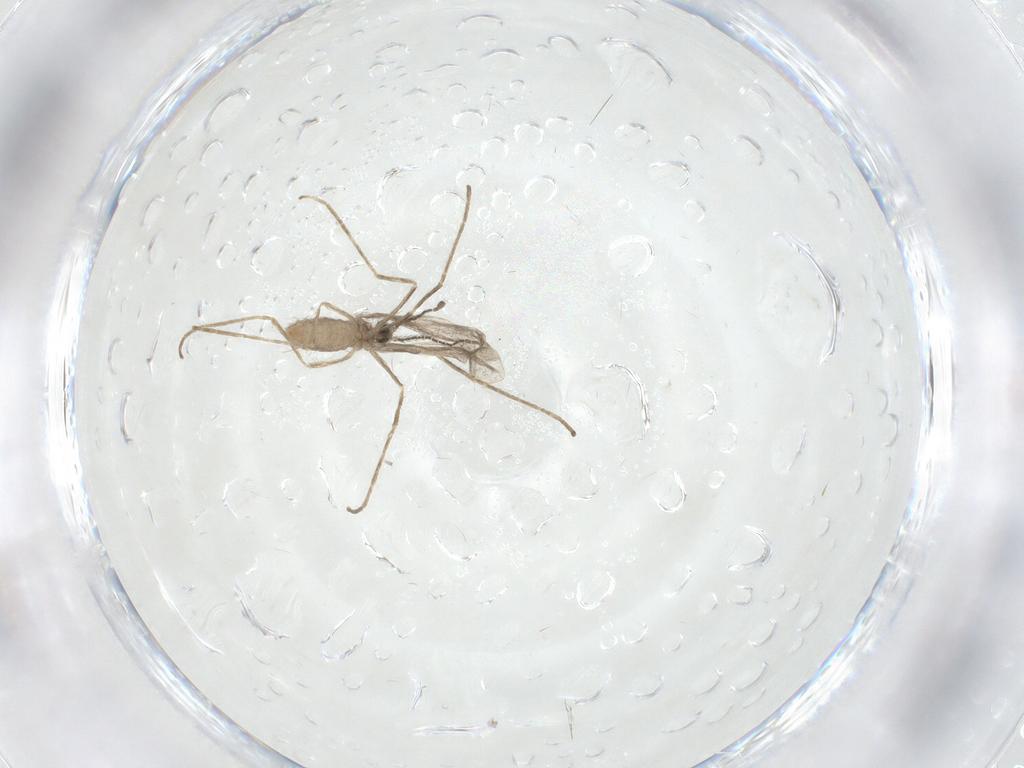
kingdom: Animalia
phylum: Arthropoda
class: Insecta
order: Diptera
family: Cecidomyiidae
